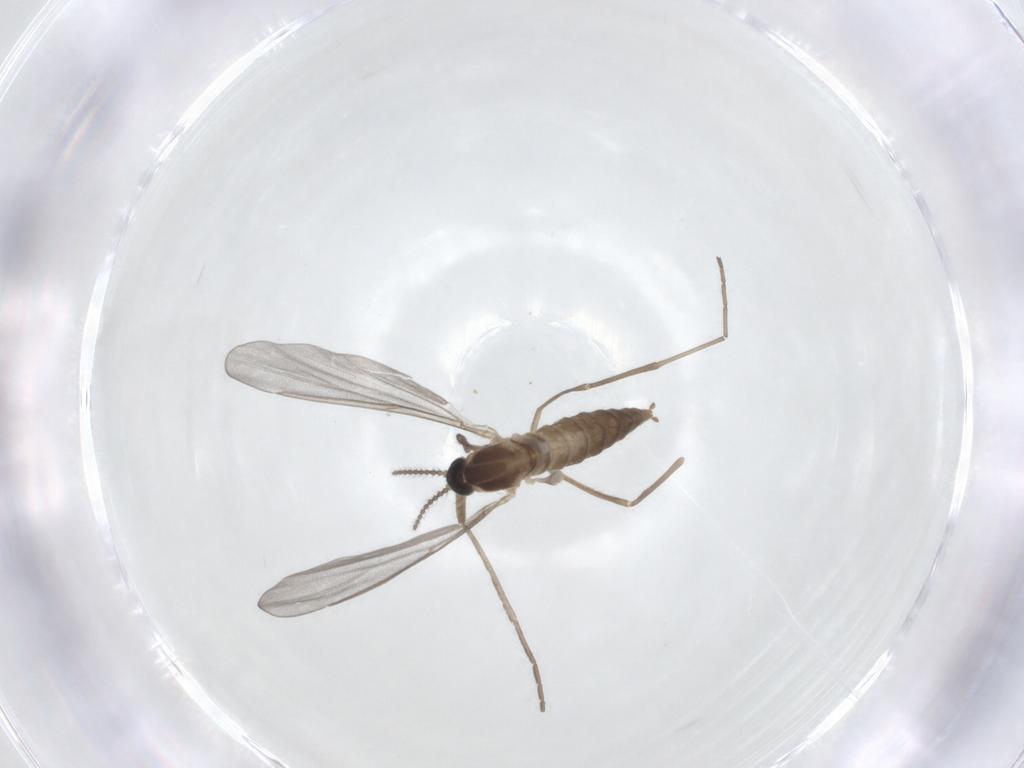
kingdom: Animalia
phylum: Arthropoda
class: Insecta
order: Diptera
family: Cecidomyiidae
